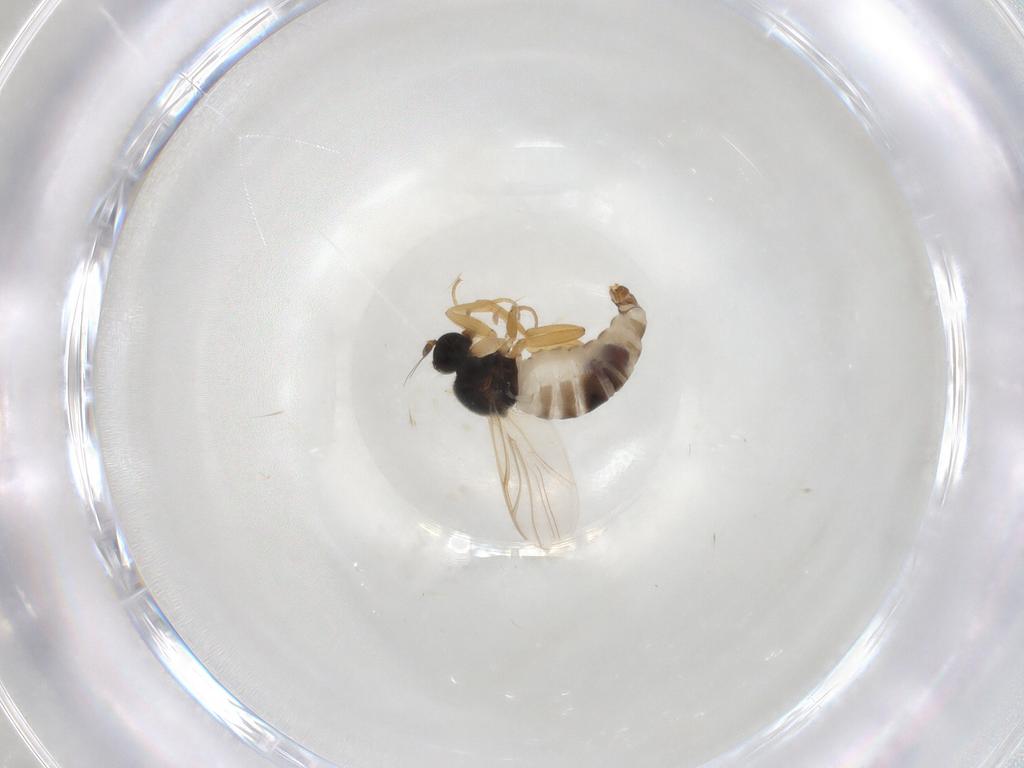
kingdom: Animalia
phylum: Arthropoda
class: Insecta
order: Diptera
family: Hybotidae
